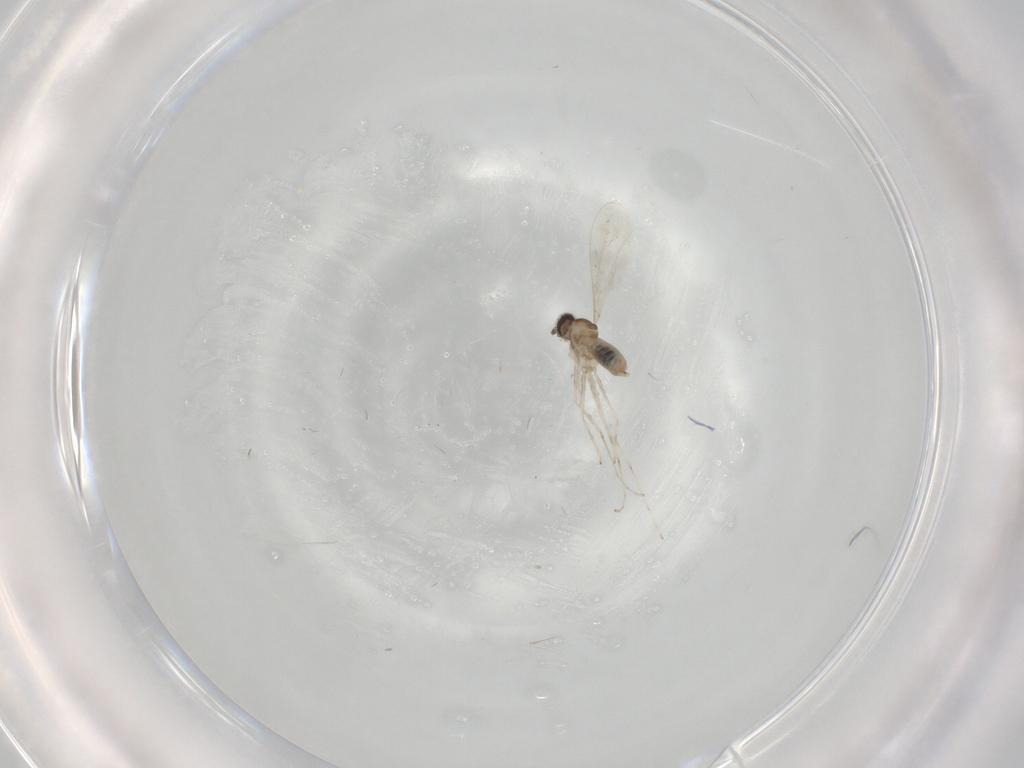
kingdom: Animalia
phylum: Arthropoda
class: Insecta
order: Diptera
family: Cecidomyiidae
